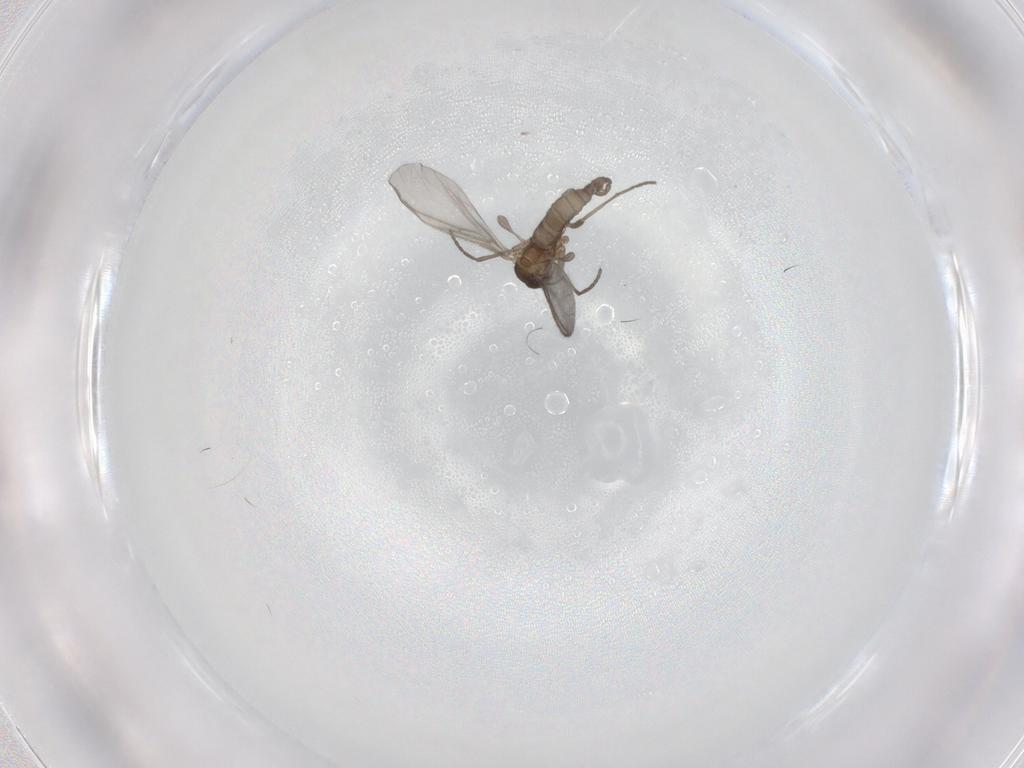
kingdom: Animalia
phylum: Arthropoda
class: Insecta
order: Diptera
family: Sciaridae
